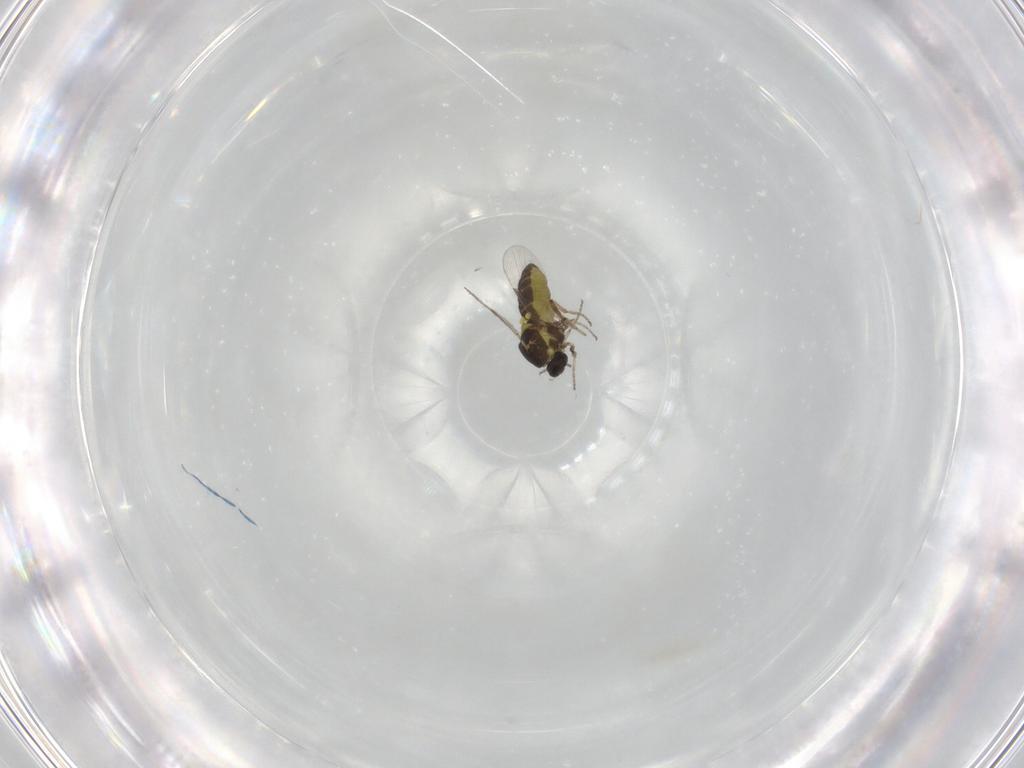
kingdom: Animalia
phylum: Arthropoda
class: Insecta
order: Diptera
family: Ceratopogonidae
